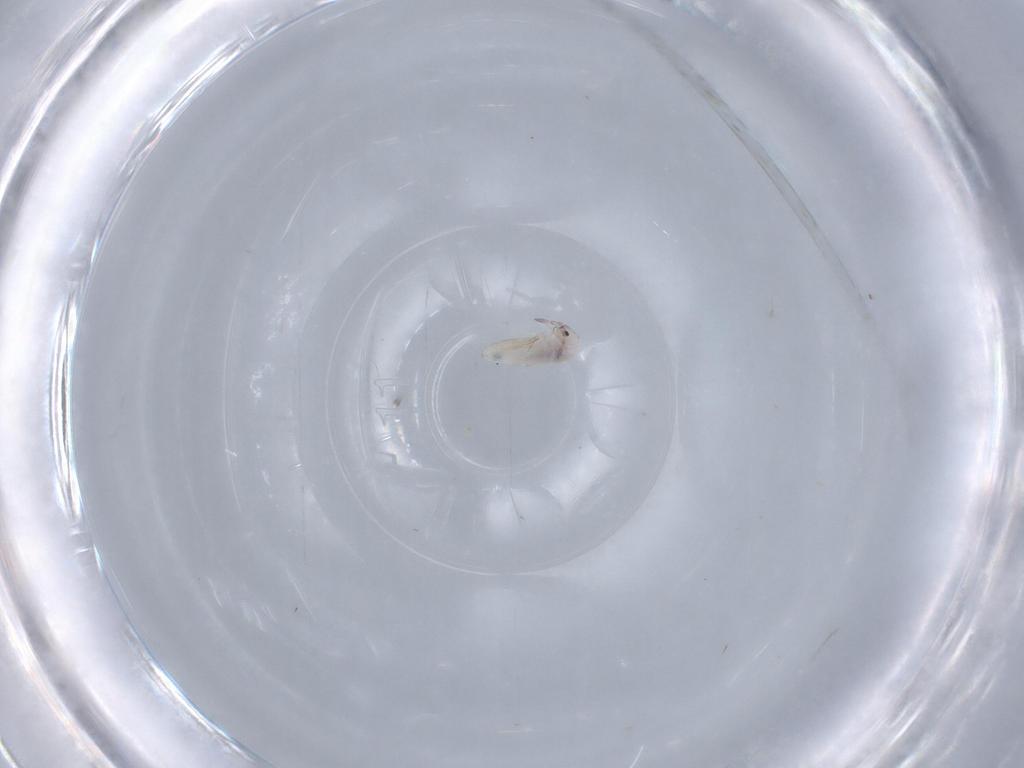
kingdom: Animalia
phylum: Arthropoda
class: Collembola
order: Entomobryomorpha
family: Entomobryidae
